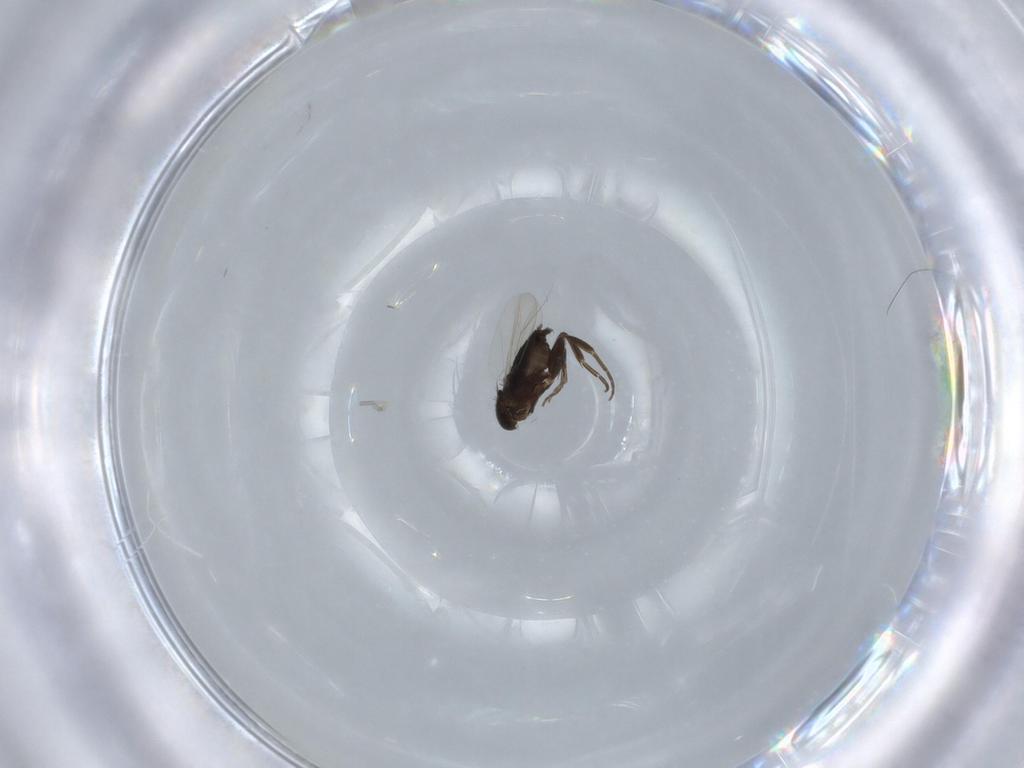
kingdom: Animalia
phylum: Arthropoda
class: Insecta
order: Diptera
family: Phoridae
